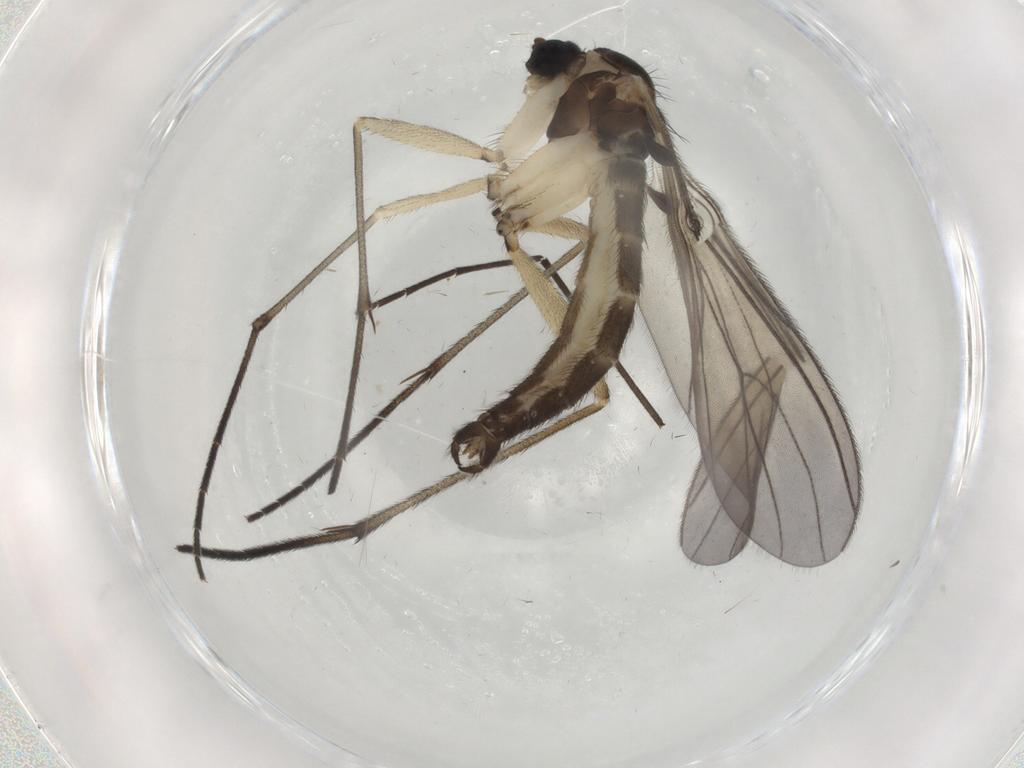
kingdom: Animalia
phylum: Arthropoda
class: Insecta
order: Diptera
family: Sciaridae
